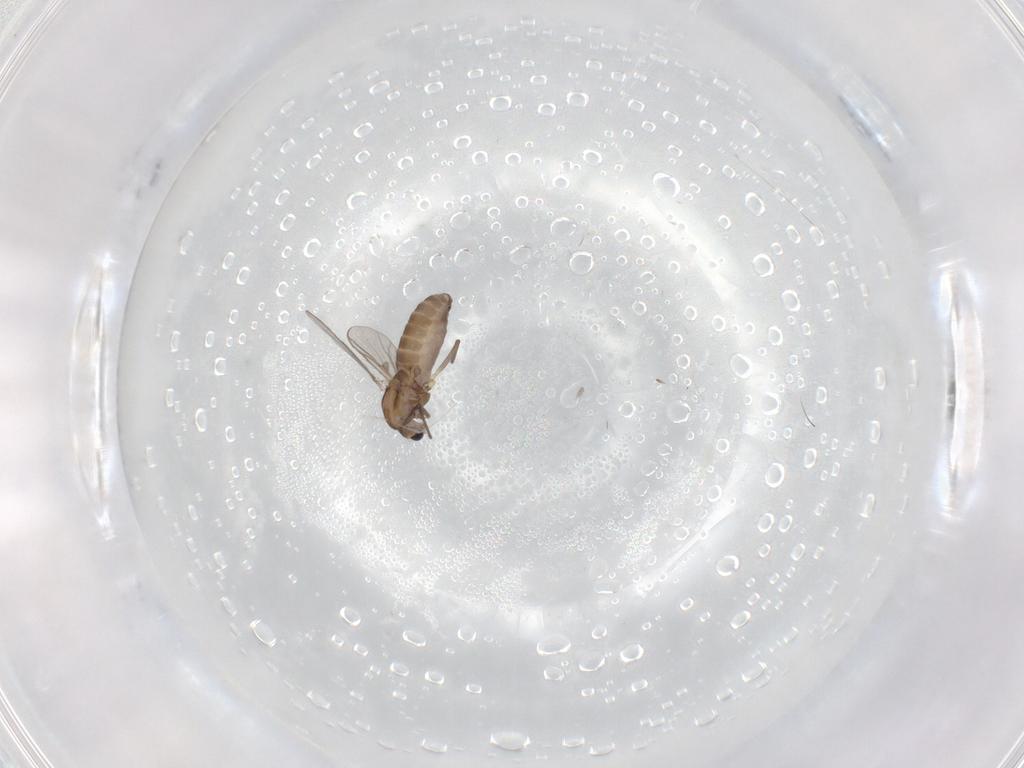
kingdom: Animalia
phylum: Arthropoda
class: Insecta
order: Diptera
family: Chironomidae
